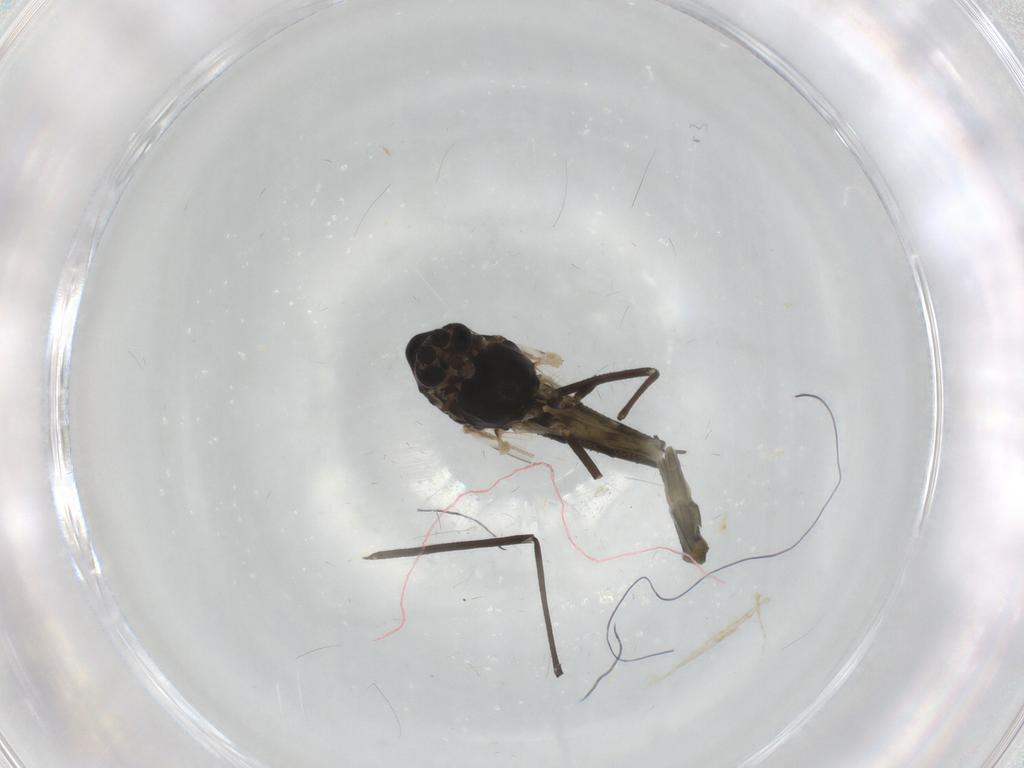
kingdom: Animalia
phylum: Arthropoda
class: Insecta
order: Diptera
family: Chironomidae
